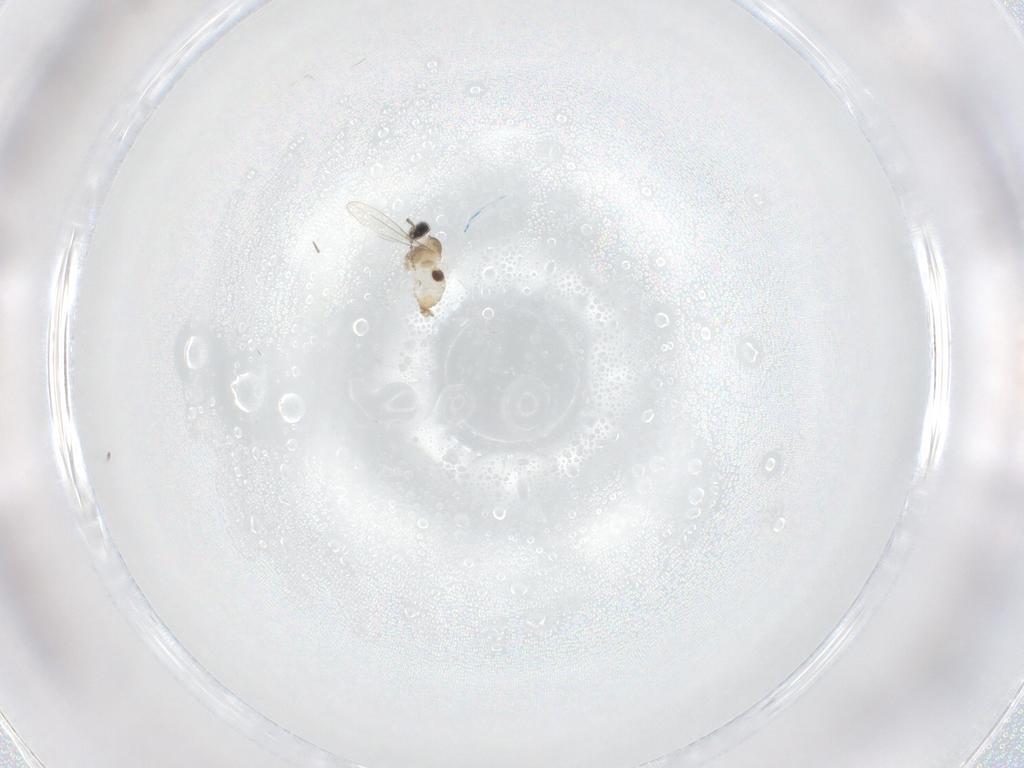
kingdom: Animalia
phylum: Arthropoda
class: Insecta
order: Diptera
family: Cecidomyiidae
